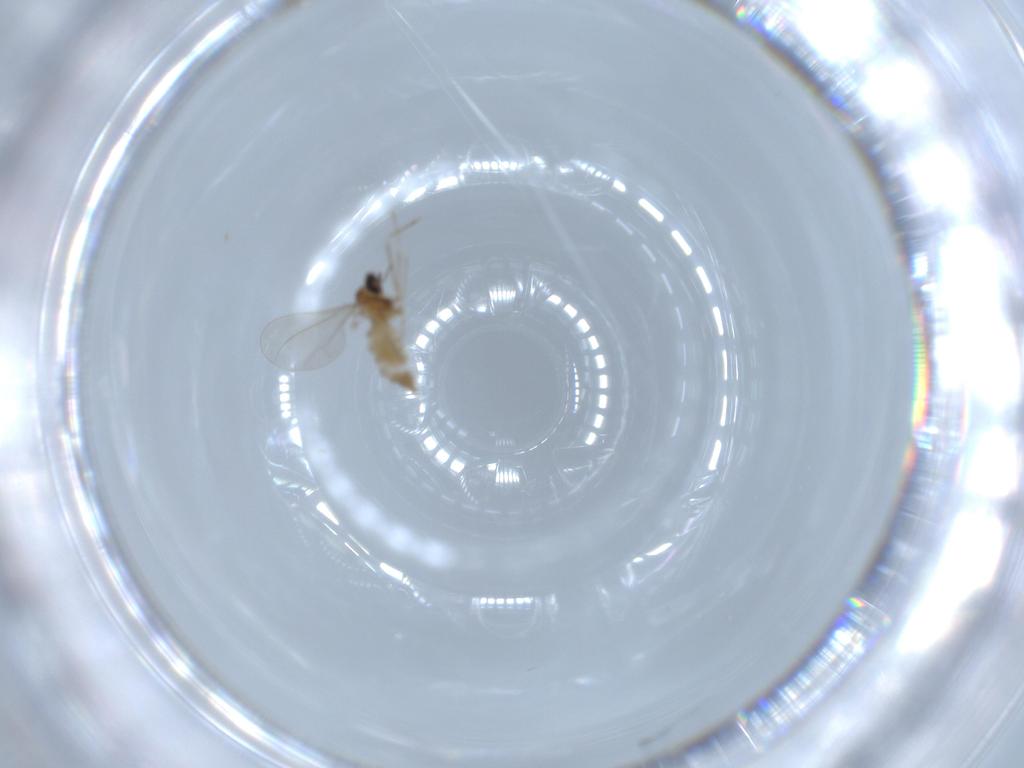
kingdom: Animalia
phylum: Arthropoda
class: Insecta
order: Diptera
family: Cecidomyiidae
